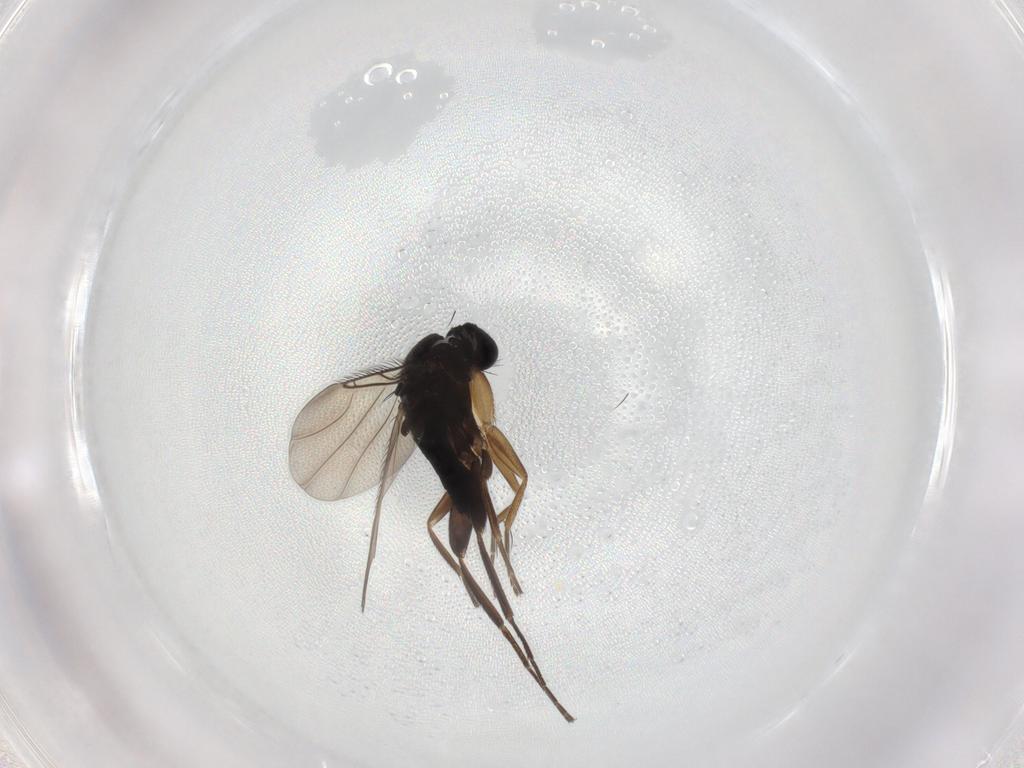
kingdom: Animalia
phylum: Arthropoda
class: Insecta
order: Diptera
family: Phoridae
